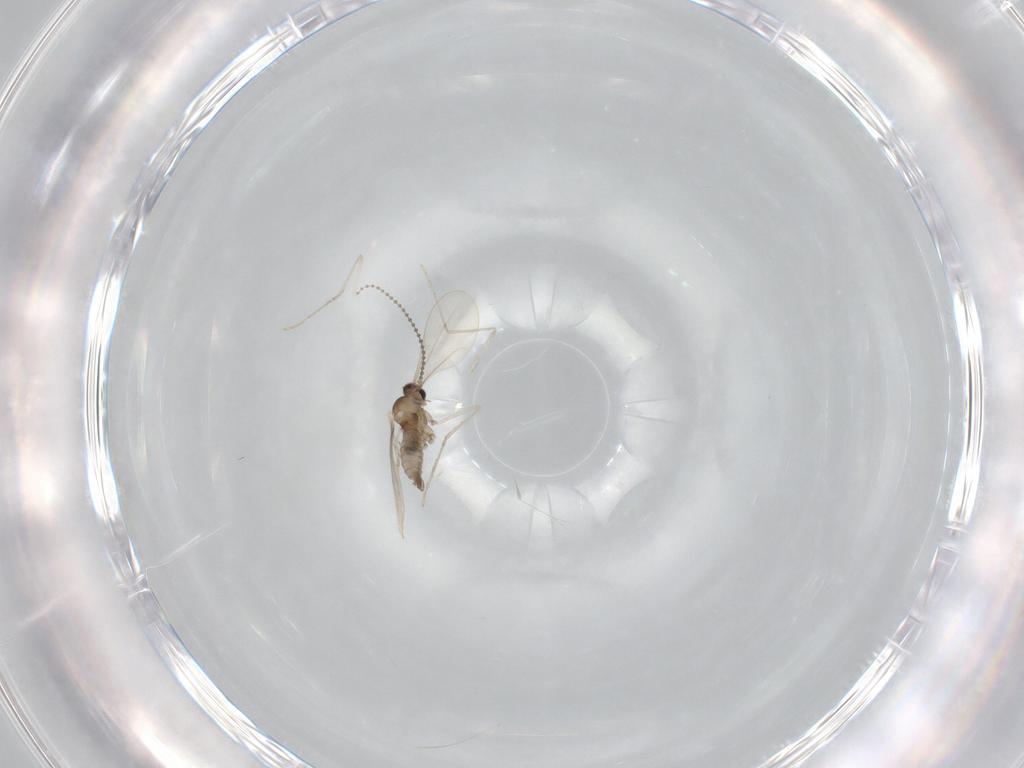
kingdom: Animalia
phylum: Arthropoda
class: Insecta
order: Diptera
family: Cecidomyiidae
